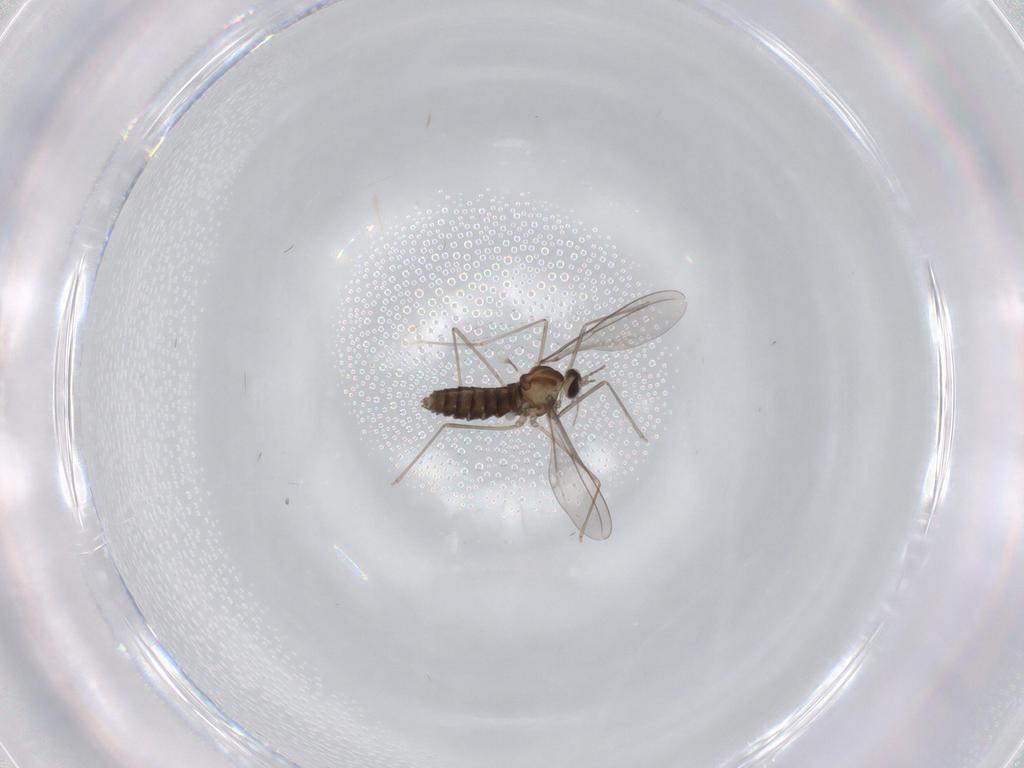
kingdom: Animalia
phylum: Arthropoda
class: Insecta
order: Diptera
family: Cecidomyiidae
